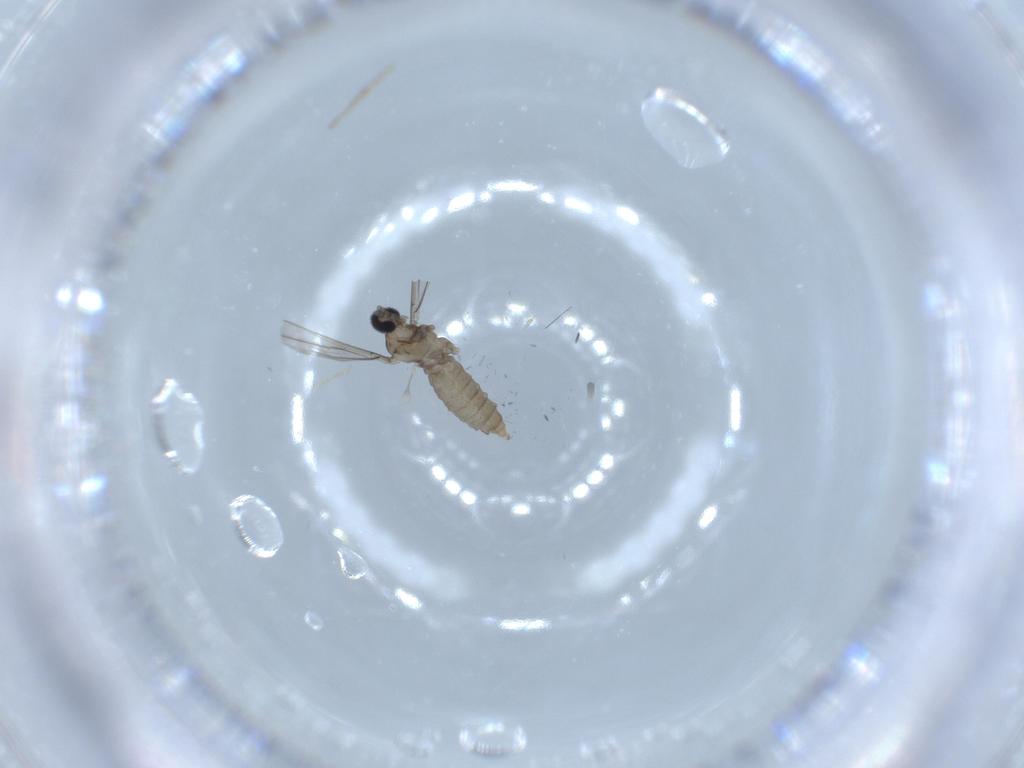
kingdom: Animalia
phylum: Arthropoda
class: Insecta
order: Diptera
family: Cecidomyiidae
